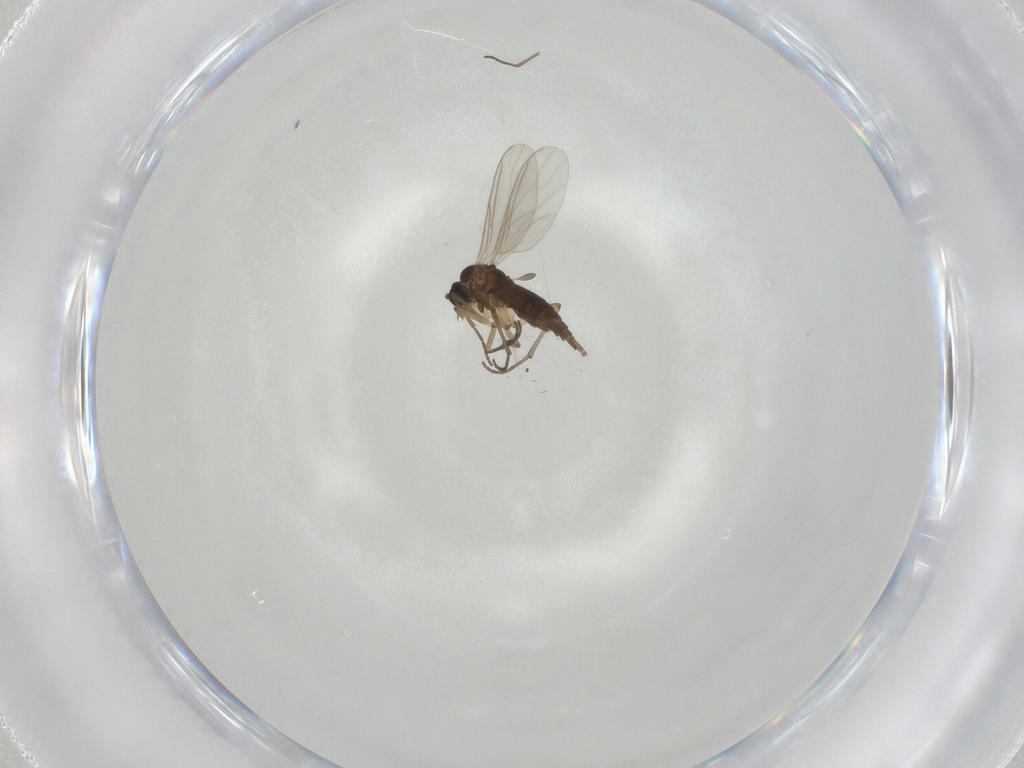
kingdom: Animalia
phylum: Arthropoda
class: Insecta
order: Diptera
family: Sciaridae
